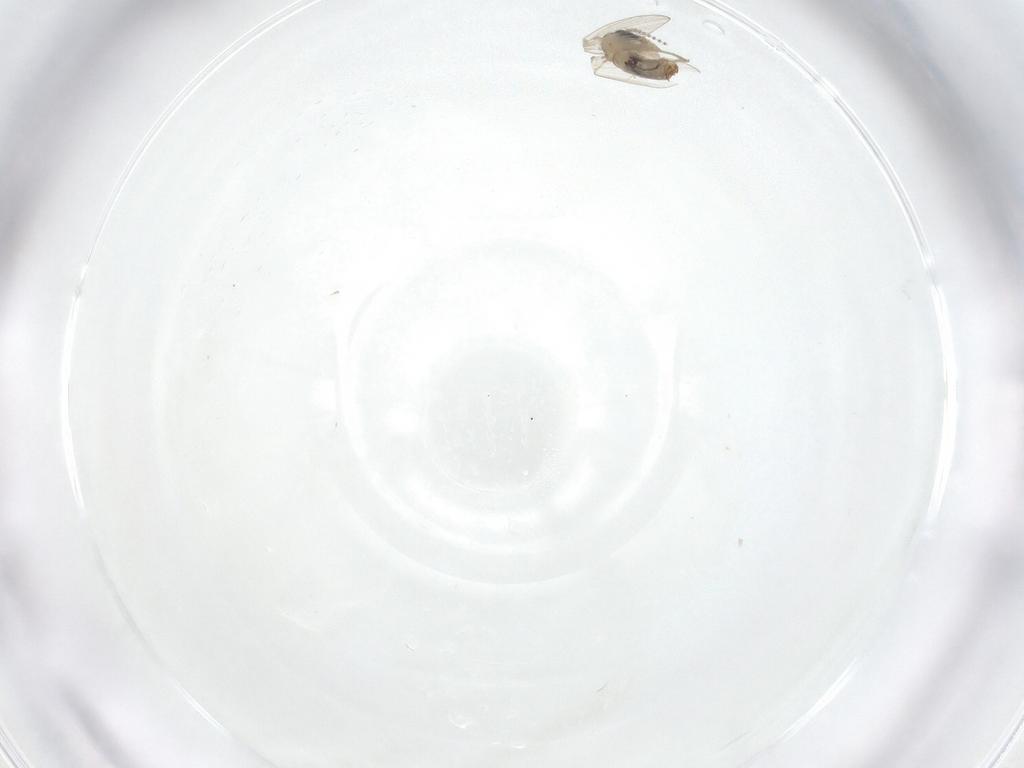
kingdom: Animalia
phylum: Arthropoda
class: Insecta
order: Diptera
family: Psychodidae
